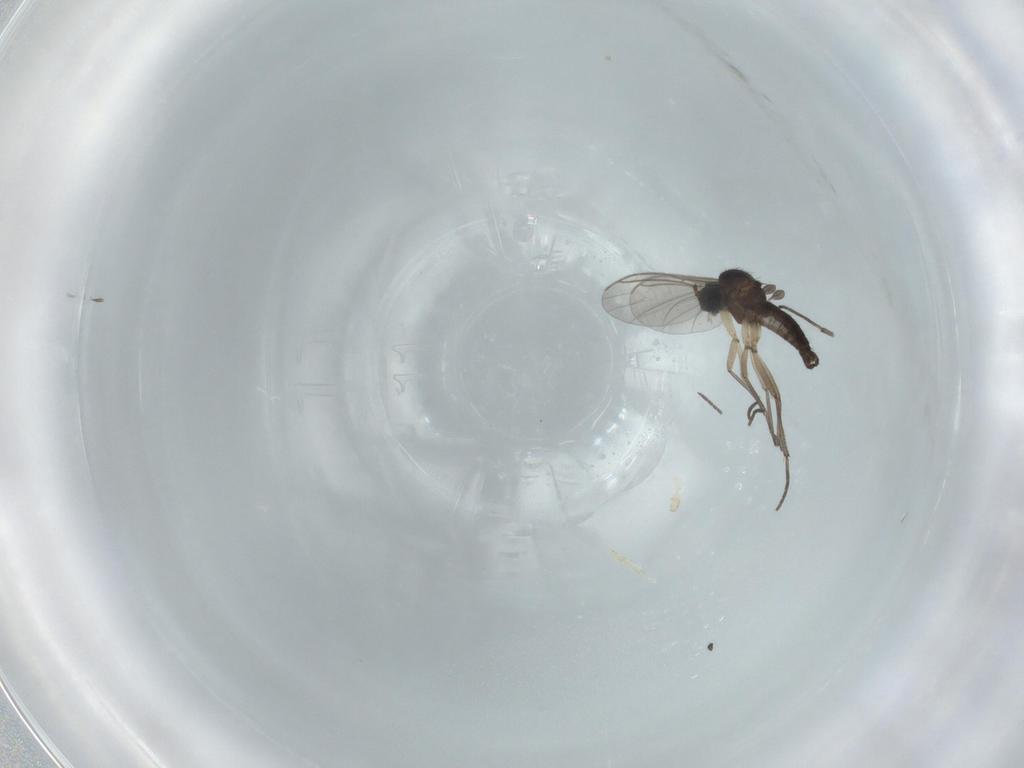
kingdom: Animalia
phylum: Arthropoda
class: Insecta
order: Diptera
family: Sciaridae
